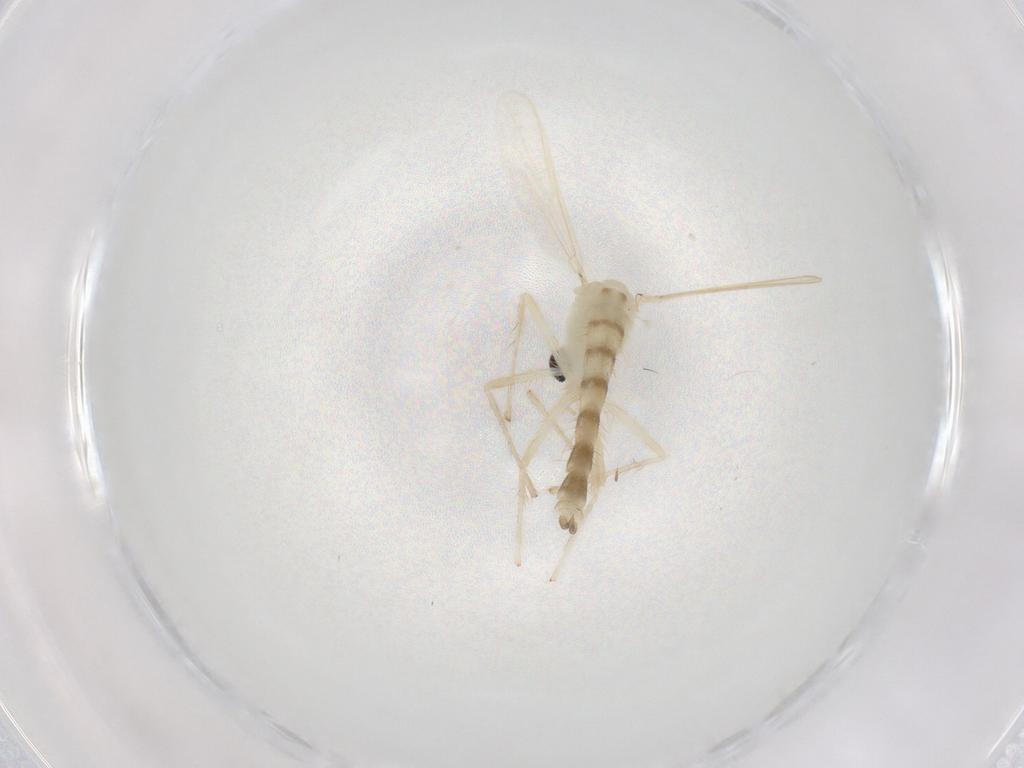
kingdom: Animalia
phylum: Arthropoda
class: Insecta
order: Diptera
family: Chironomidae
